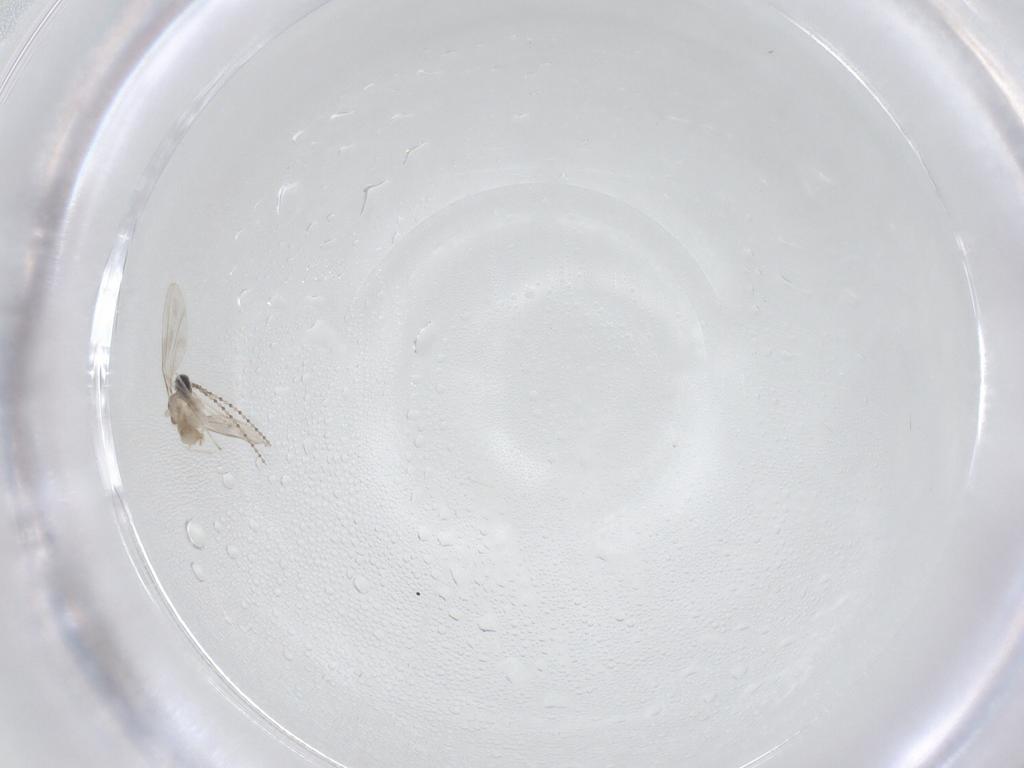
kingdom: Animalia
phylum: Arthropoda
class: Insecta
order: Diptera
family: Cecidomyiidae
